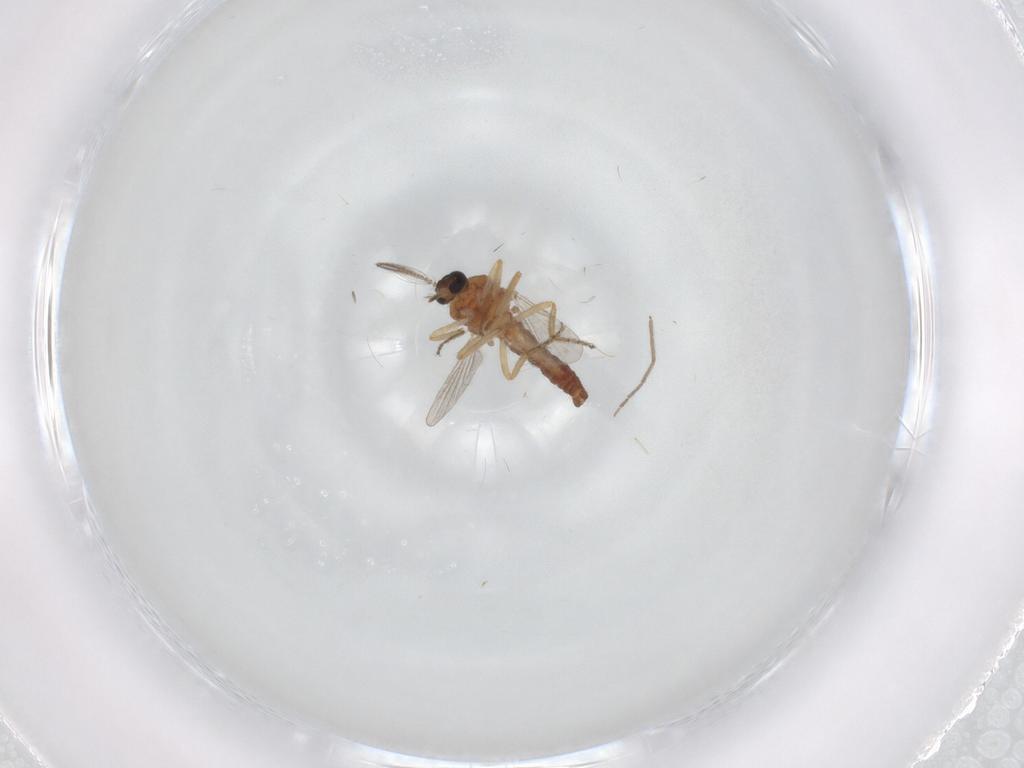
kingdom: Animalia
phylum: Arthropoda
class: Insecta
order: Diptera
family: Ceratopogonidae
